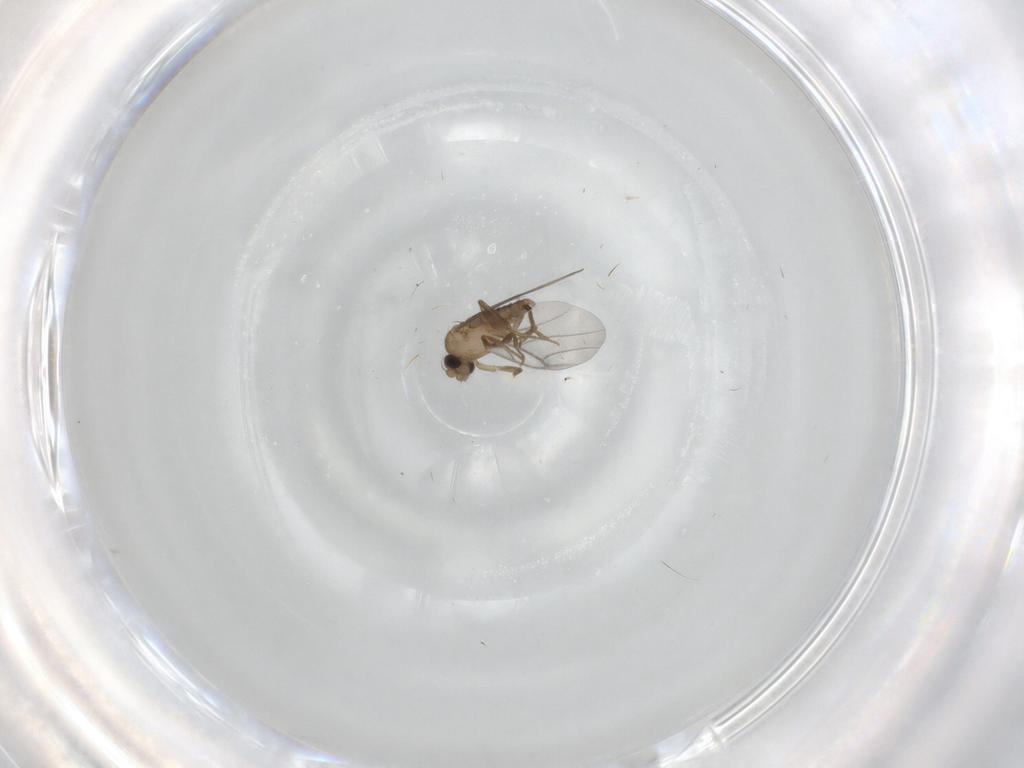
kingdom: Animalia
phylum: Arthropoda
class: Insecta
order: Diptera
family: Cecidomyiidae
